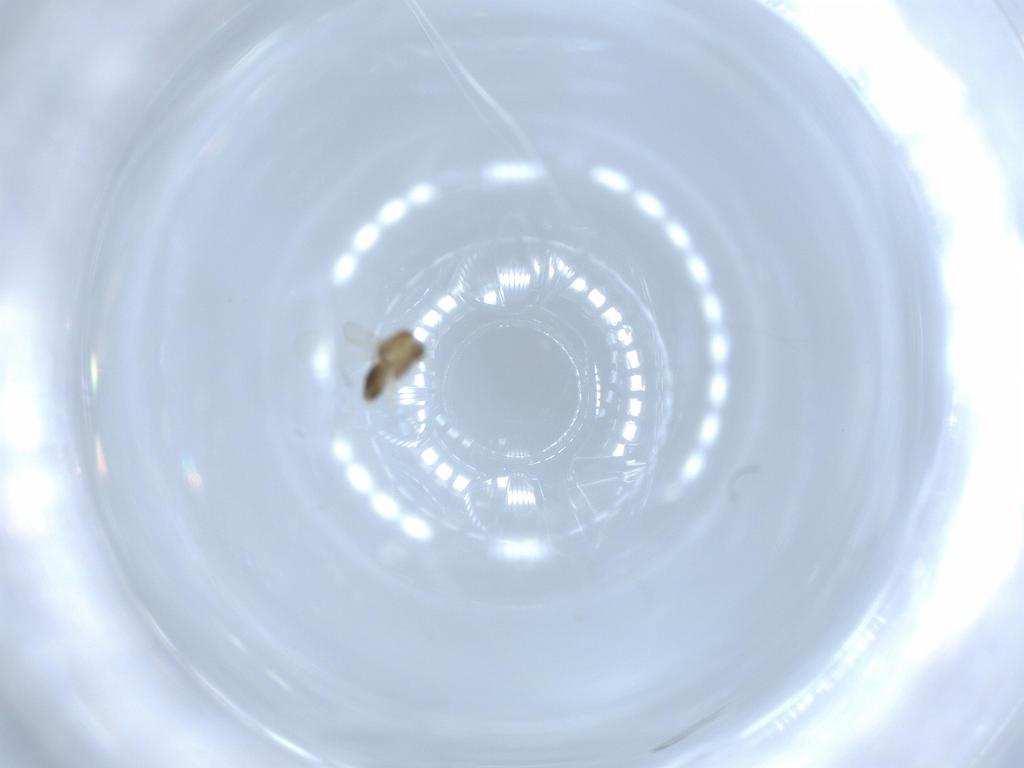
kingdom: Animalia
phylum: Arthropoda
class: Insecta
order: Diptera
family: Chironomidae
